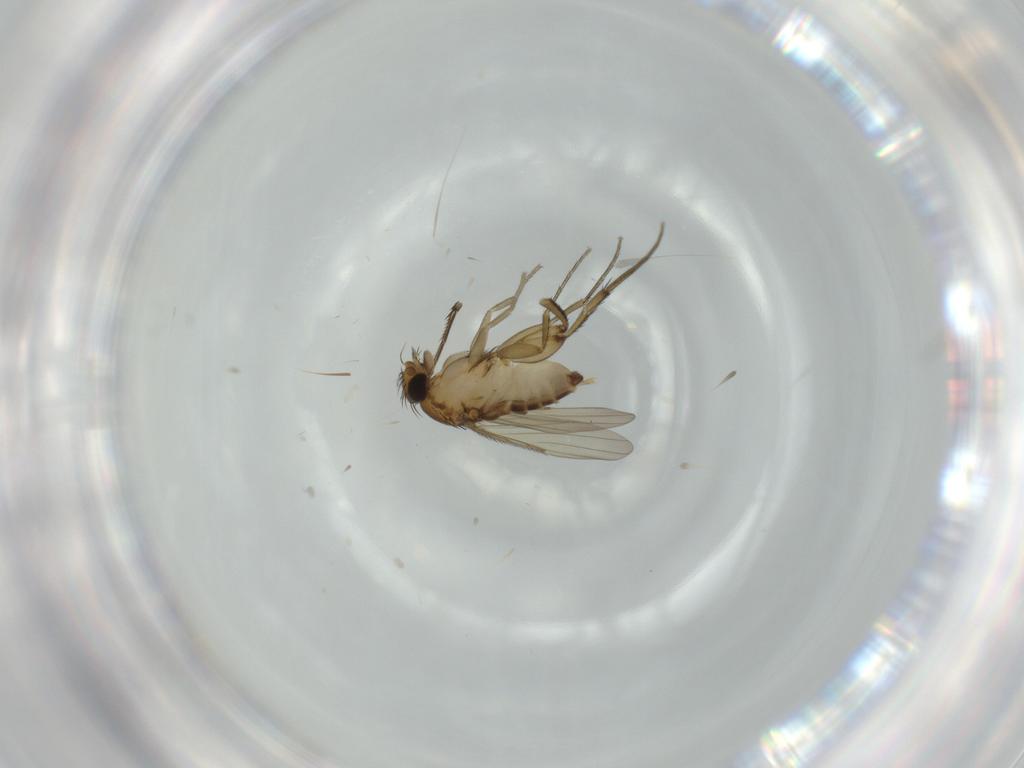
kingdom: Animalia
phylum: Arthropoda
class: Insecta
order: Diptera
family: Phoridae
